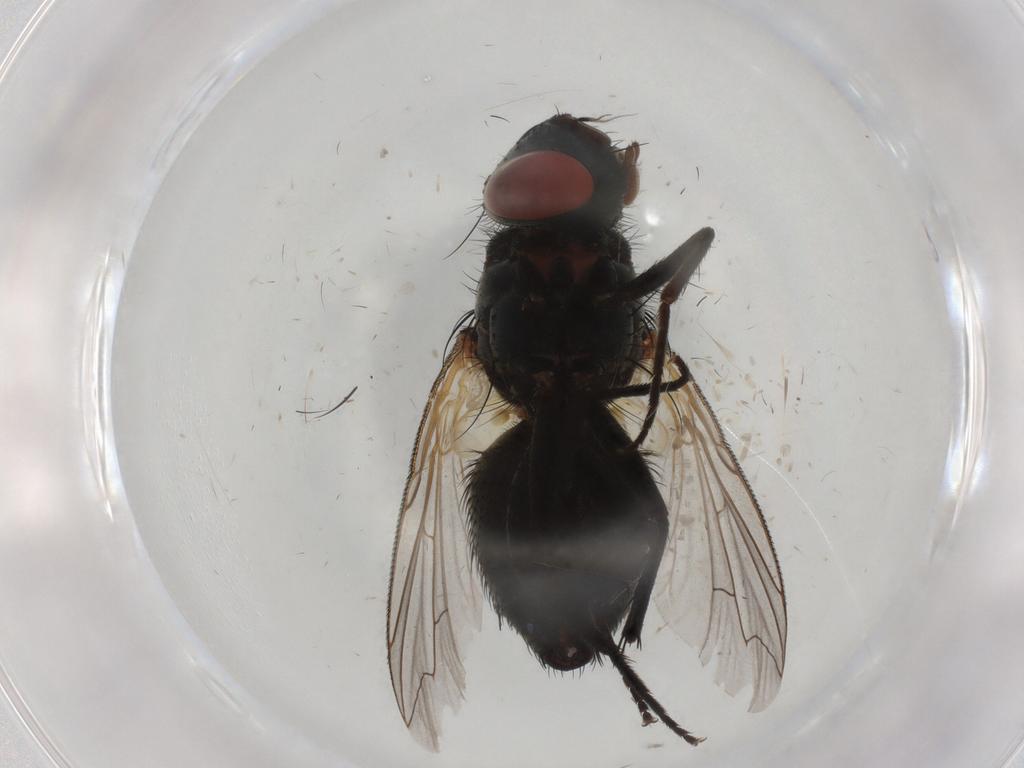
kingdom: Animalia
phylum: Arthropoda
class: Insecta
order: Diptera
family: Sarcophagidae
